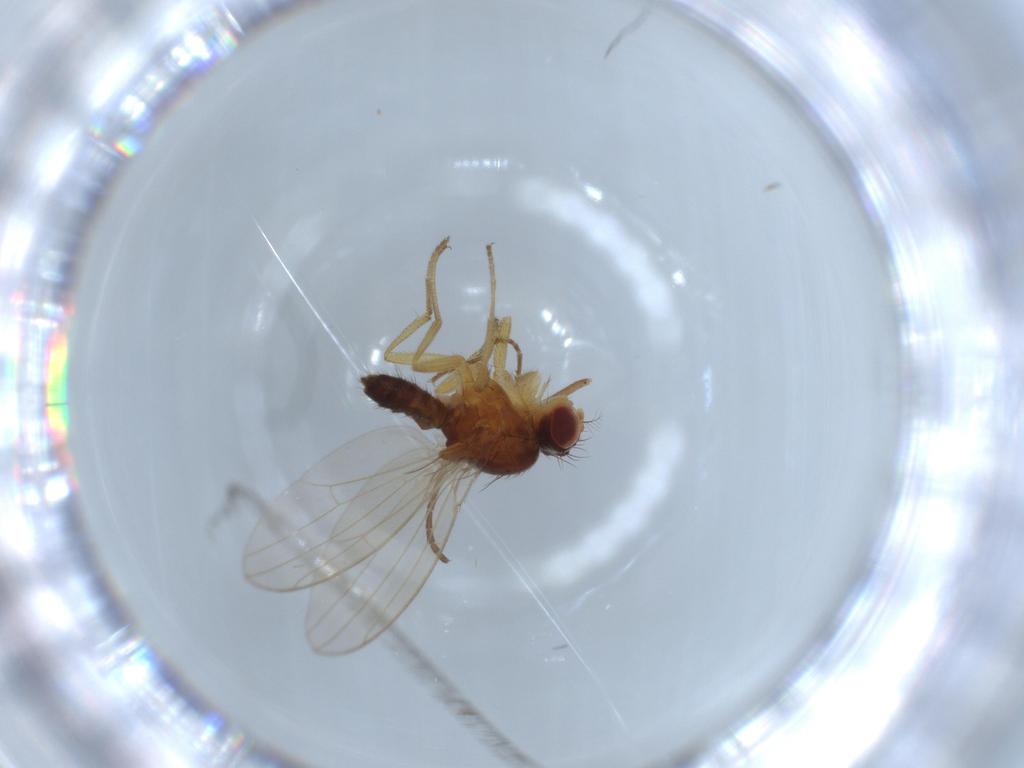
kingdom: Animalia
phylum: Arthropoda
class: Insecta
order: Diptera
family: Drosophilidae
